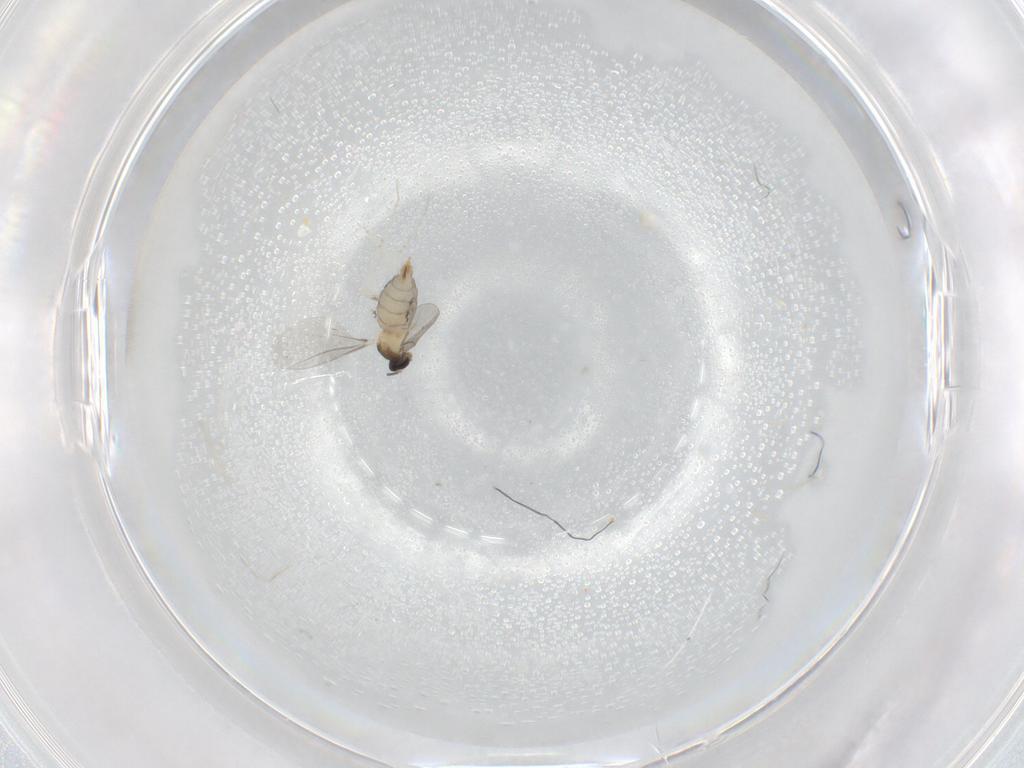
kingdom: Animalia
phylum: Arthropoda
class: Insecta
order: Diptera
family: Cecidomyiidae
